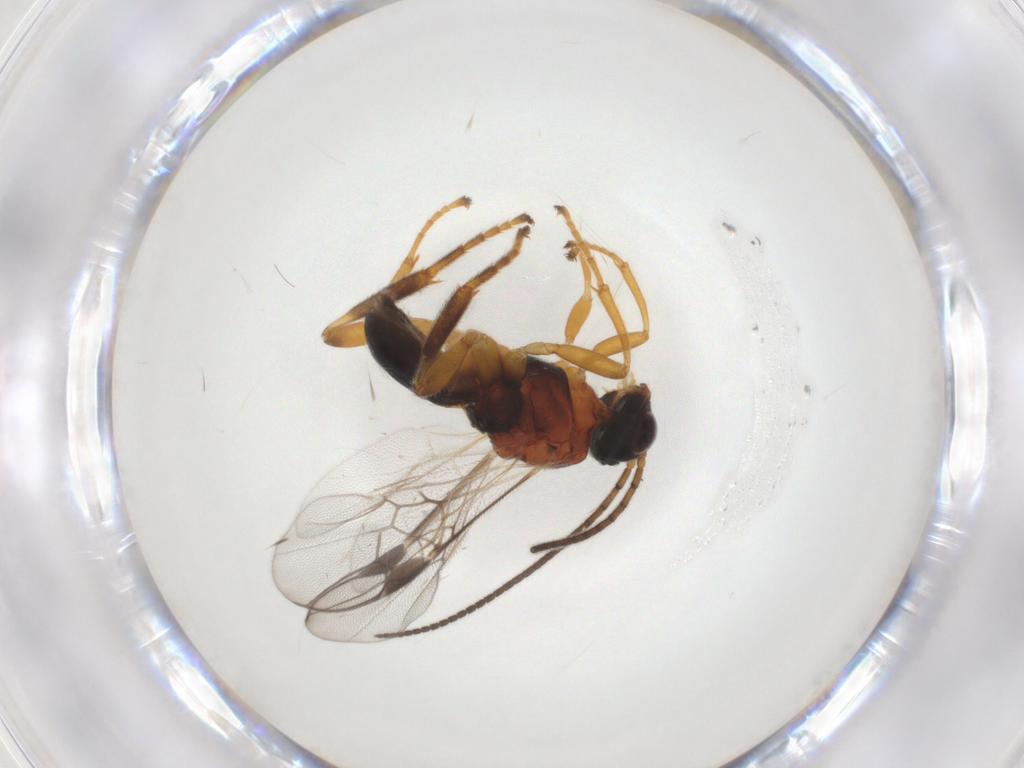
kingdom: Animalia
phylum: Arthropoda
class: Insecta
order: Hymenoptera
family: Braconidae
